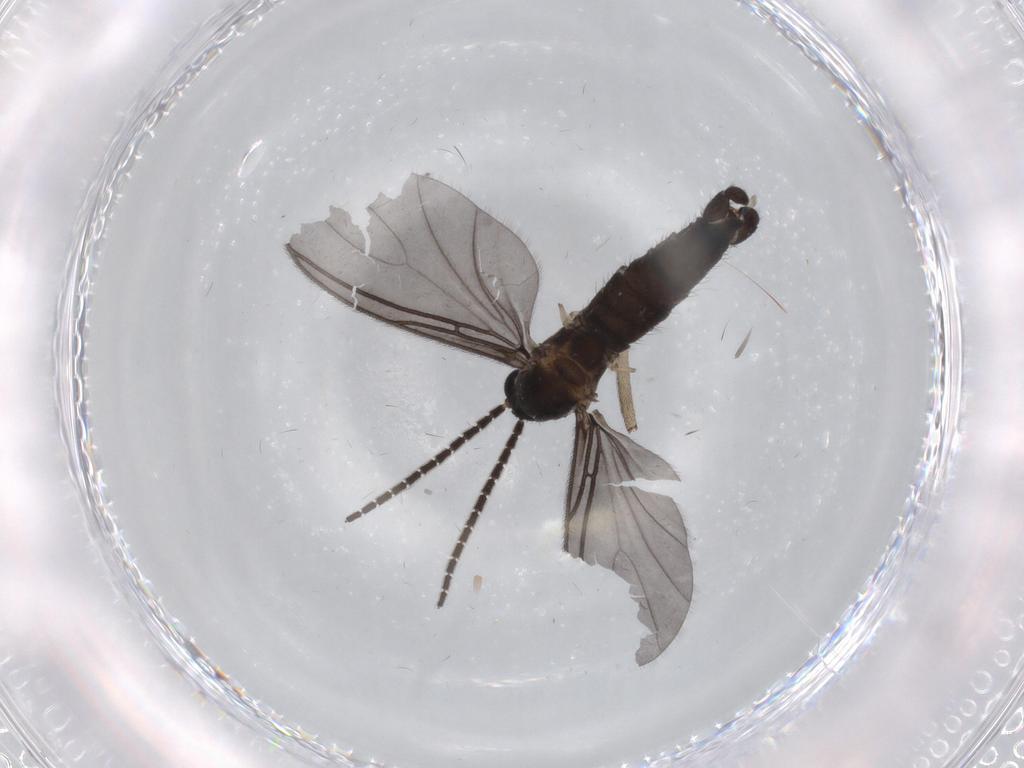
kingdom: Animalia
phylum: Arthropoda
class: Insecta
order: Diptera
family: Sciaridae
